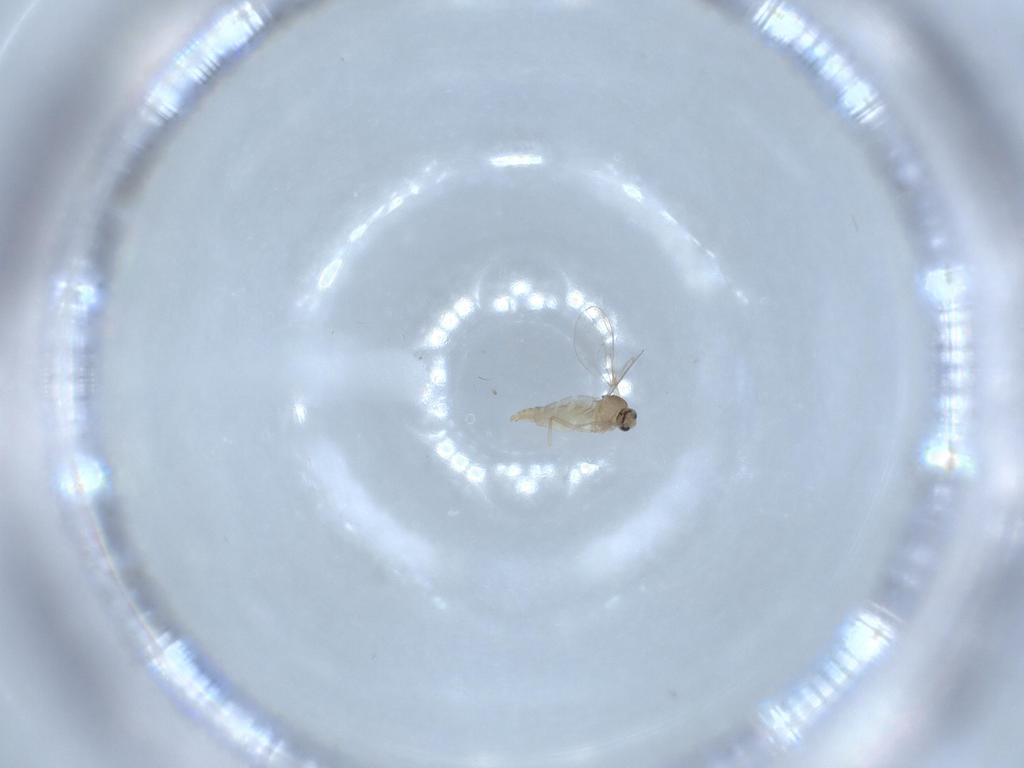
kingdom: Animalia
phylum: Arthropoda
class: Insecta
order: Diptera
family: Cecidomyiidae
